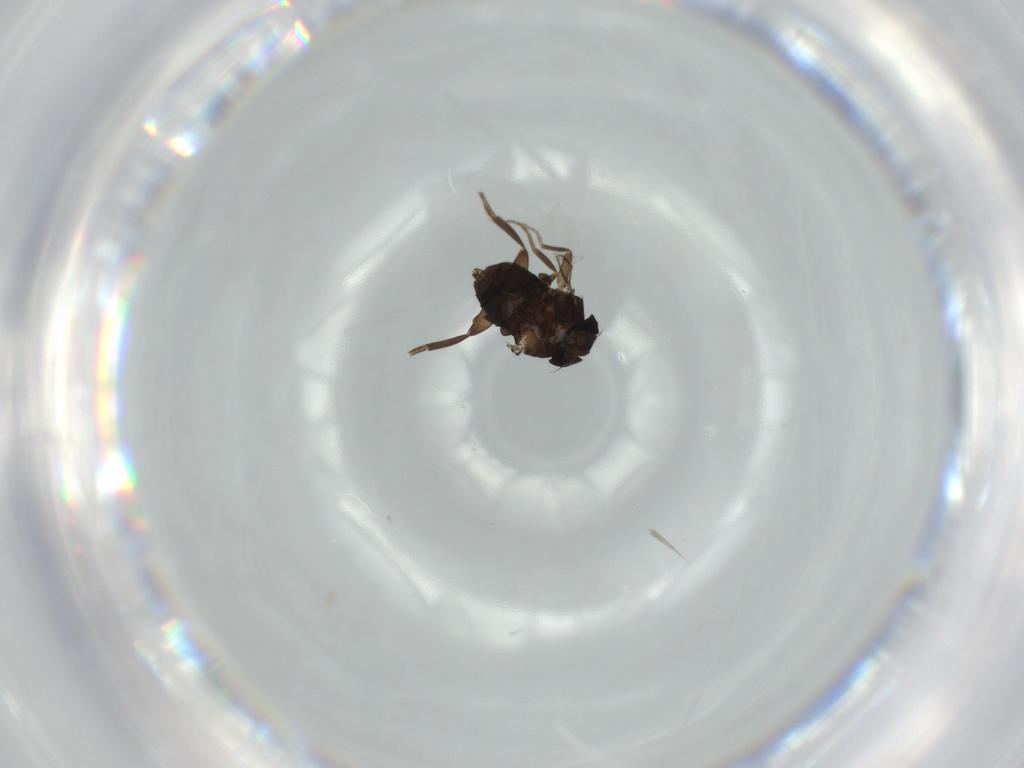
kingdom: Animalia
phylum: Arthropoda
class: Insecta
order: Diptera
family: Phoridae
